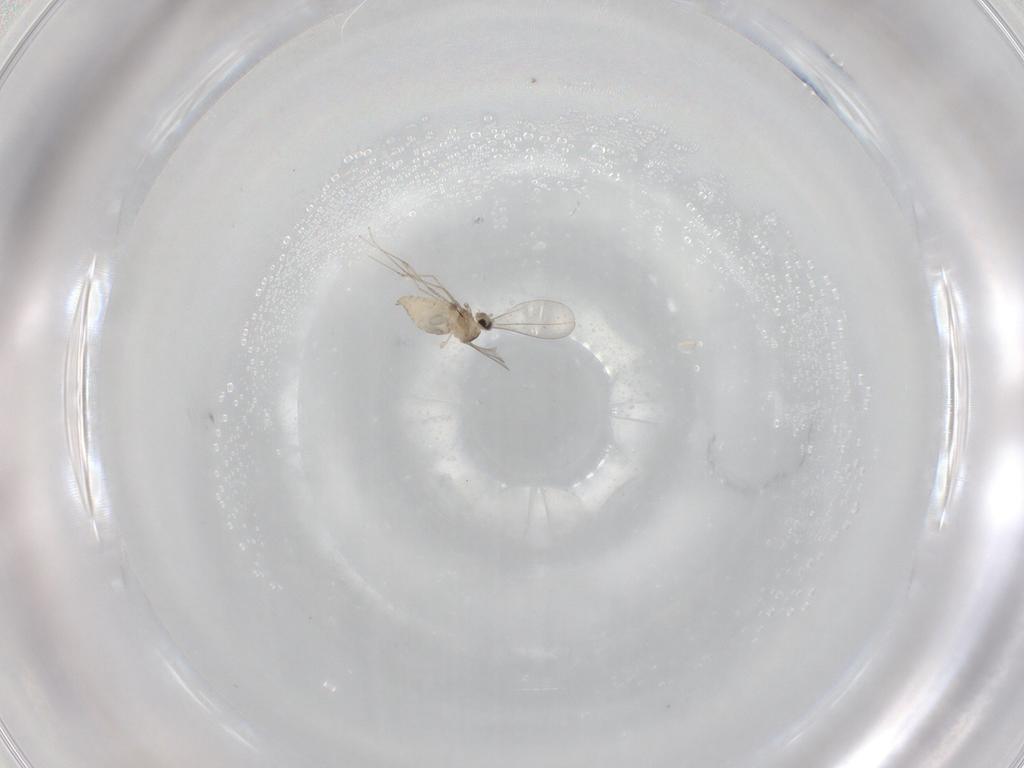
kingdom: Animalia
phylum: Arthropoda
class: Insecta
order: Diptera
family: Cecidomyiidae
